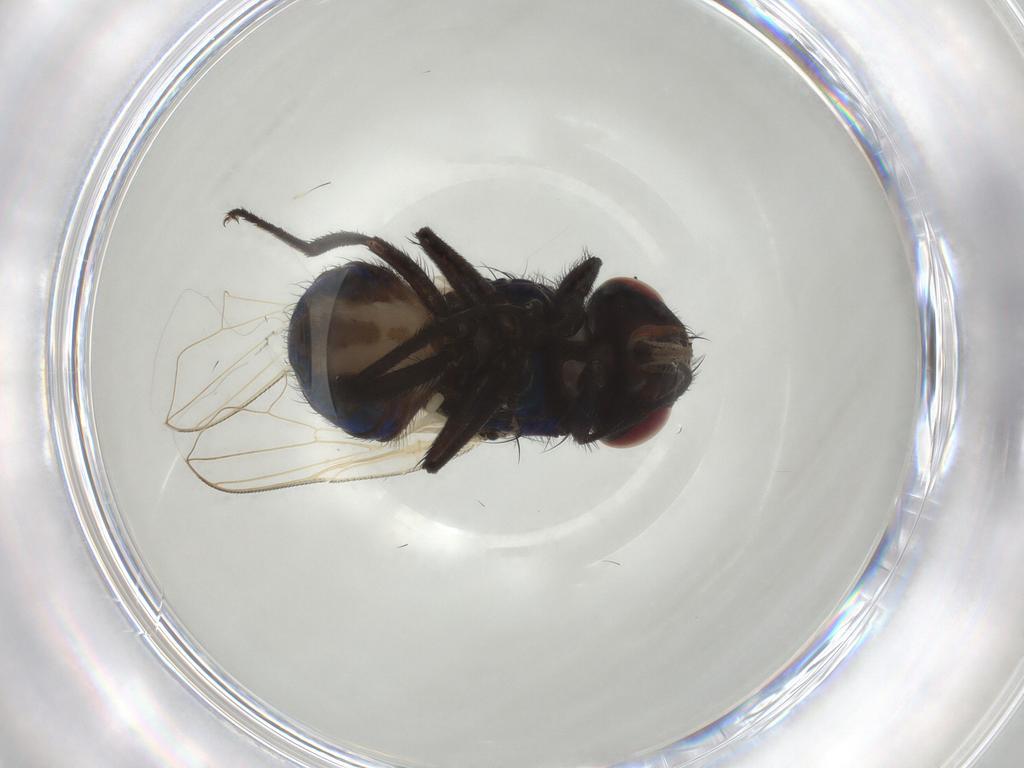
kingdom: Animalia
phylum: Arthropoda
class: Insecta
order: Diptera
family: Muscidae
